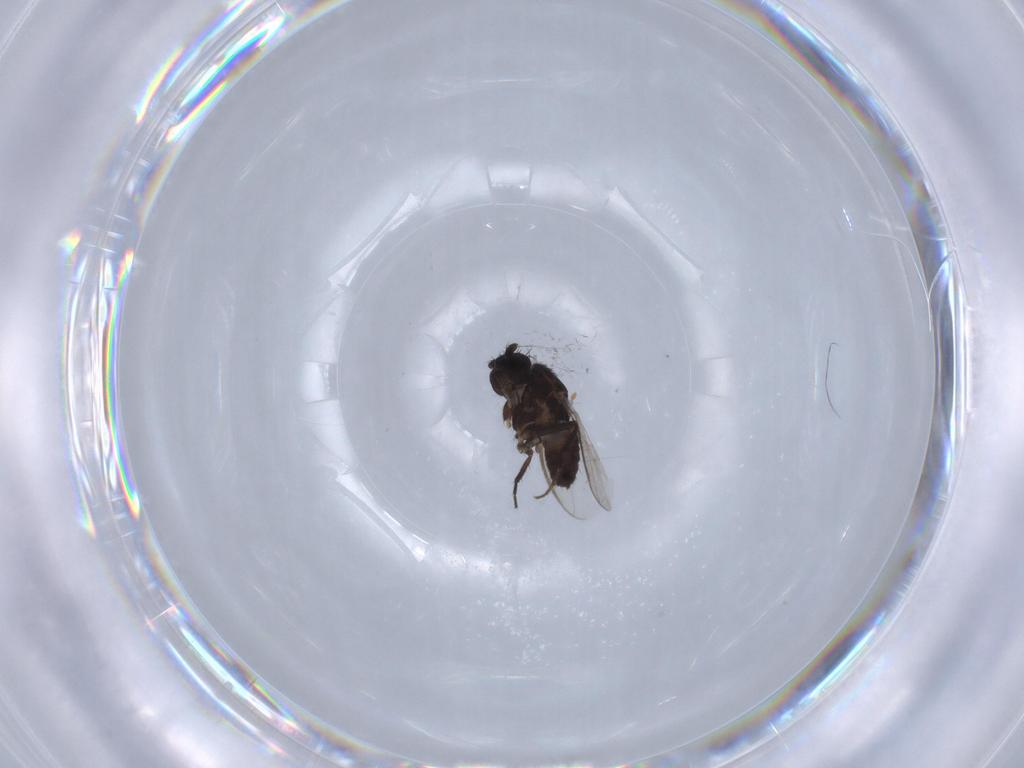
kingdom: Animalia
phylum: Arthropoda
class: Insecta
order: Diptera
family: Sphaeroceridae
